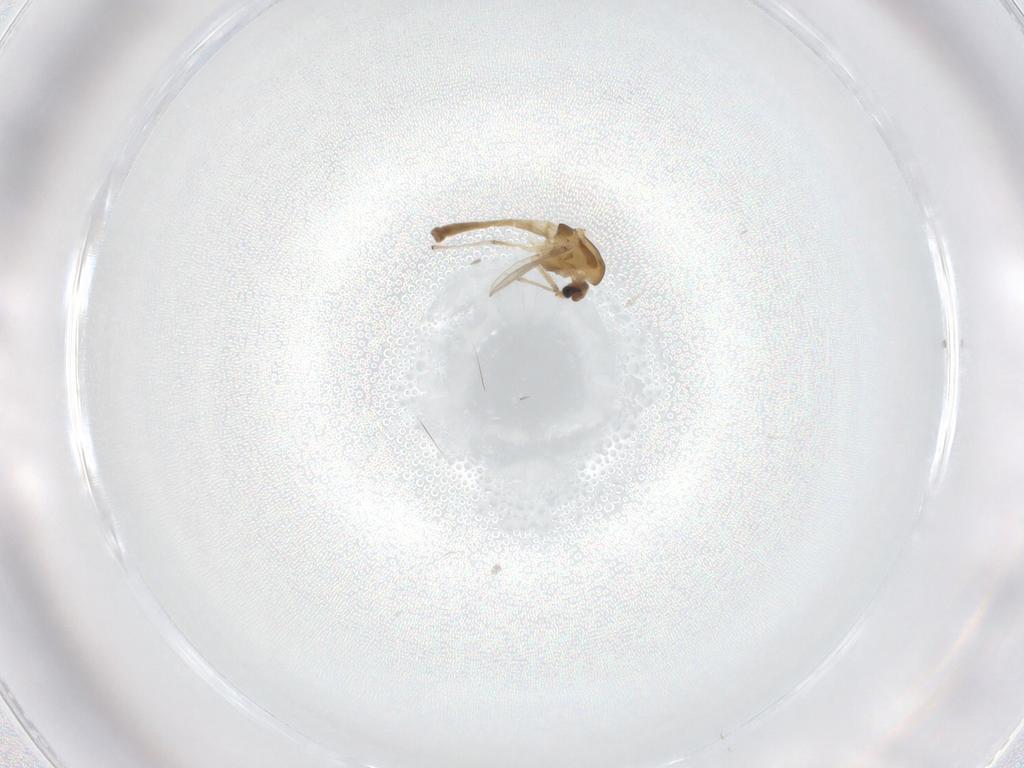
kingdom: Animalia
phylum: Arthropoda
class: Insecta
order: Diptera
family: Chironomidae
